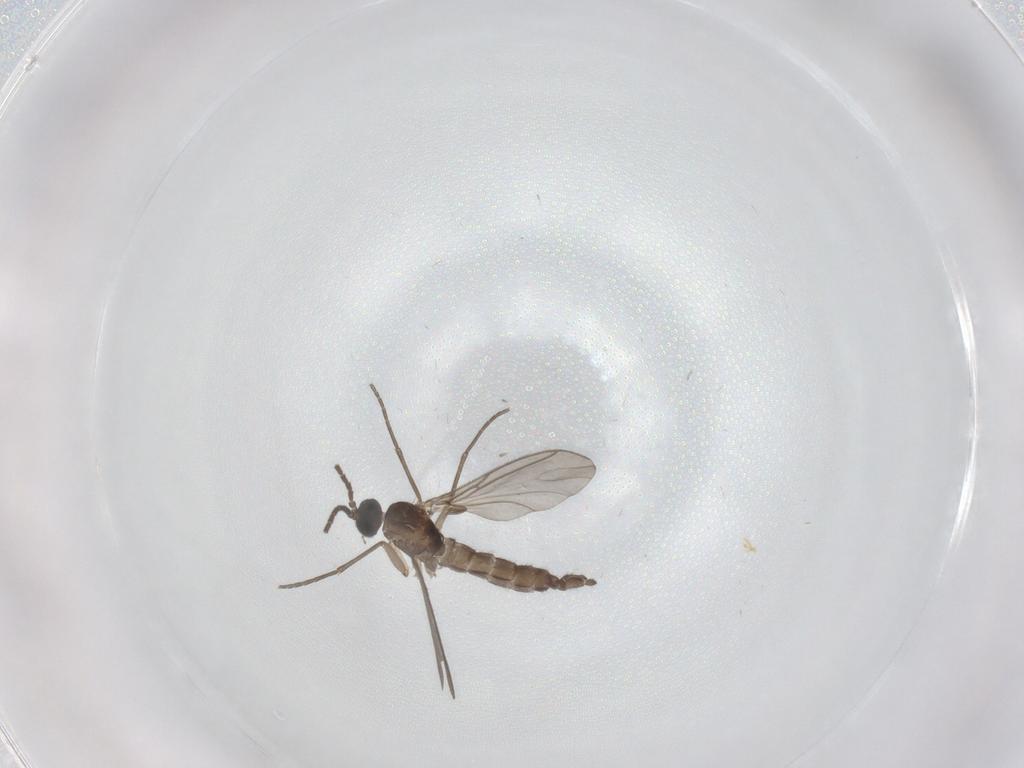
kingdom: Animalia
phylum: Arthropoda
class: Insecta
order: Diptera
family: Sciaridae
